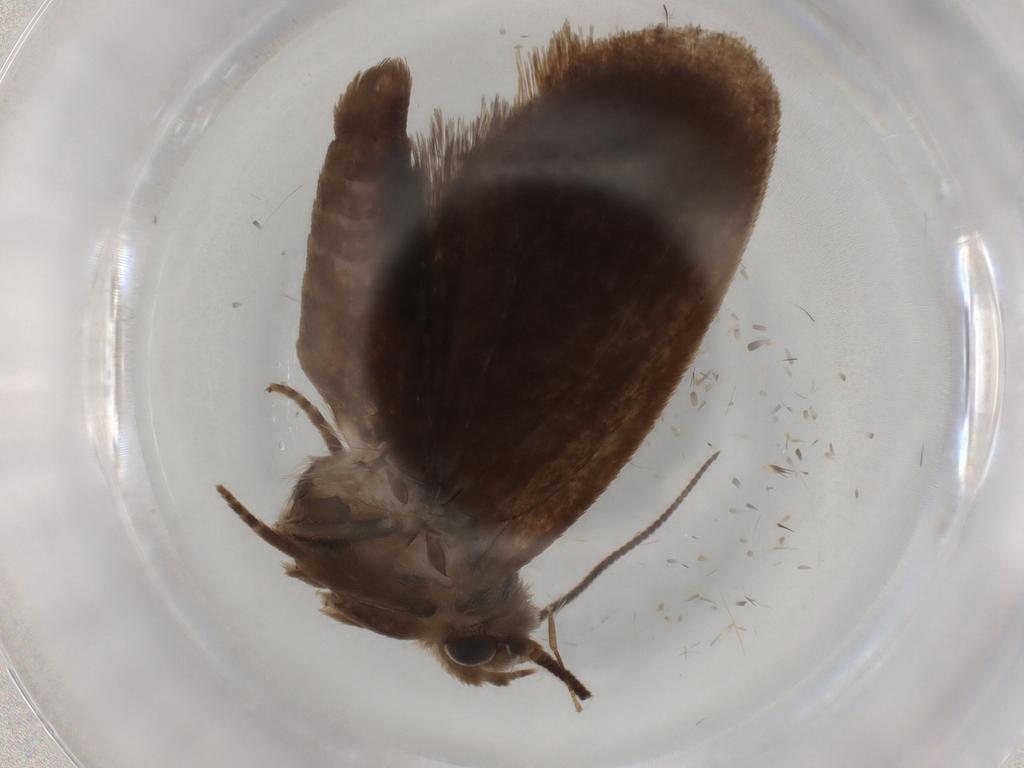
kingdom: Animalia
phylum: Arthropoda
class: Insecta
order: Lepidoptera
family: Tineidae
